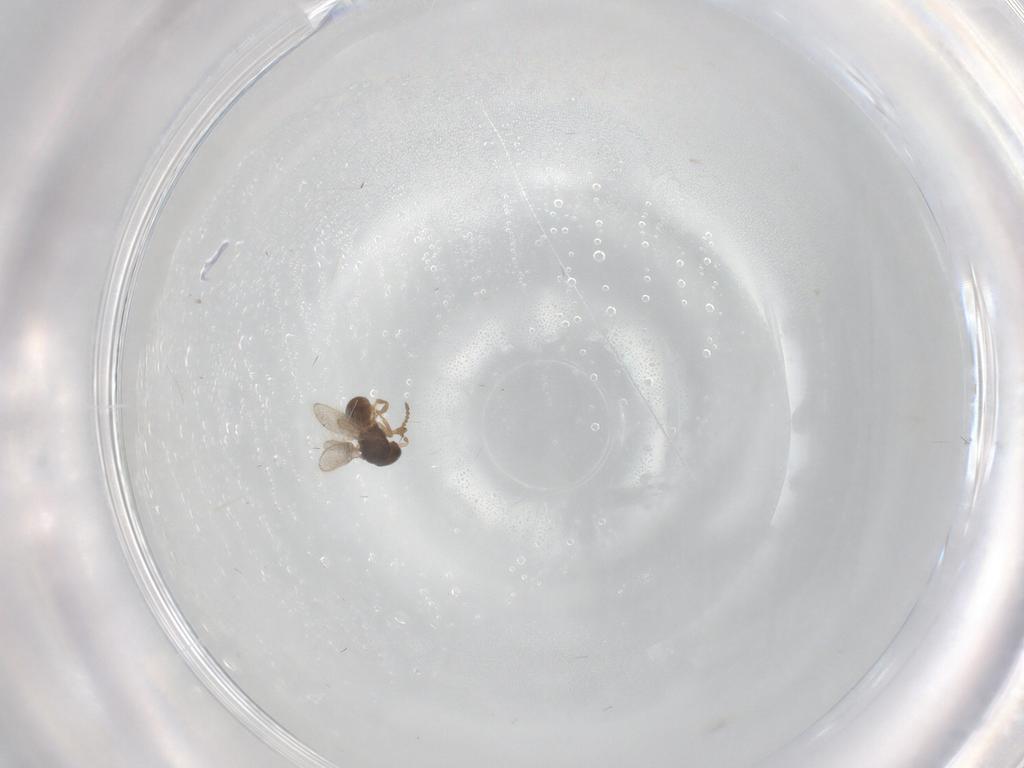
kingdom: Animalia
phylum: Arthropoda
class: Insecta
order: Hymenoptera
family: Scelionidae
